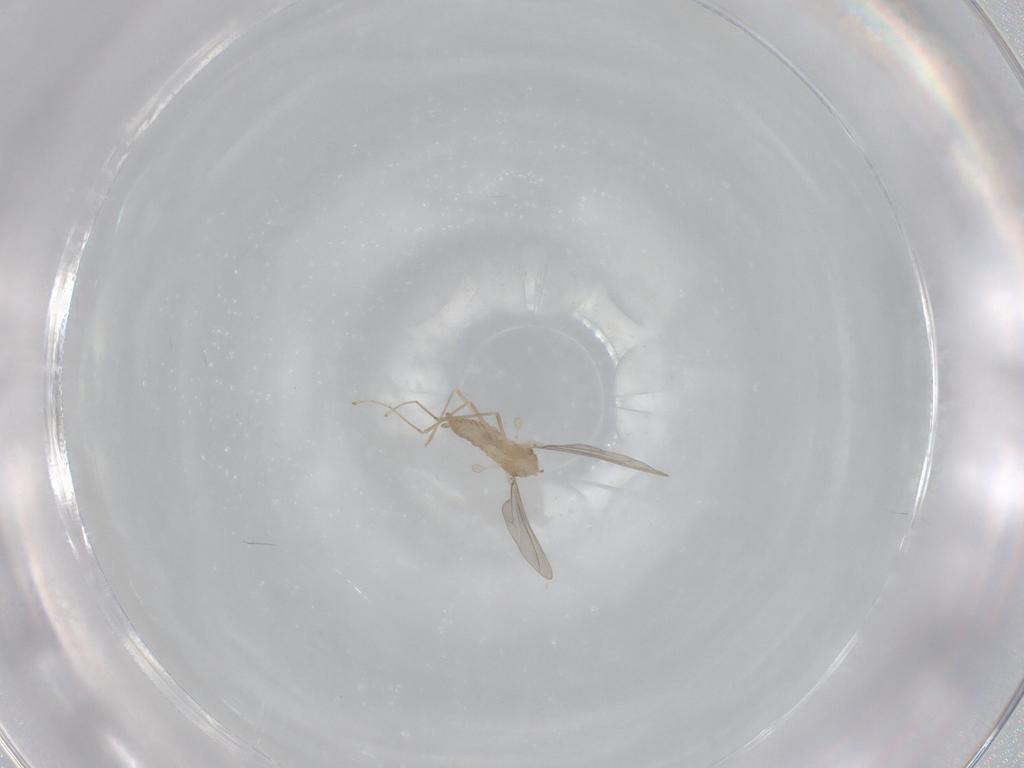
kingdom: Animalia
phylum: Arthropoda
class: Insecta
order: Diptera
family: Cecidomyiidae
